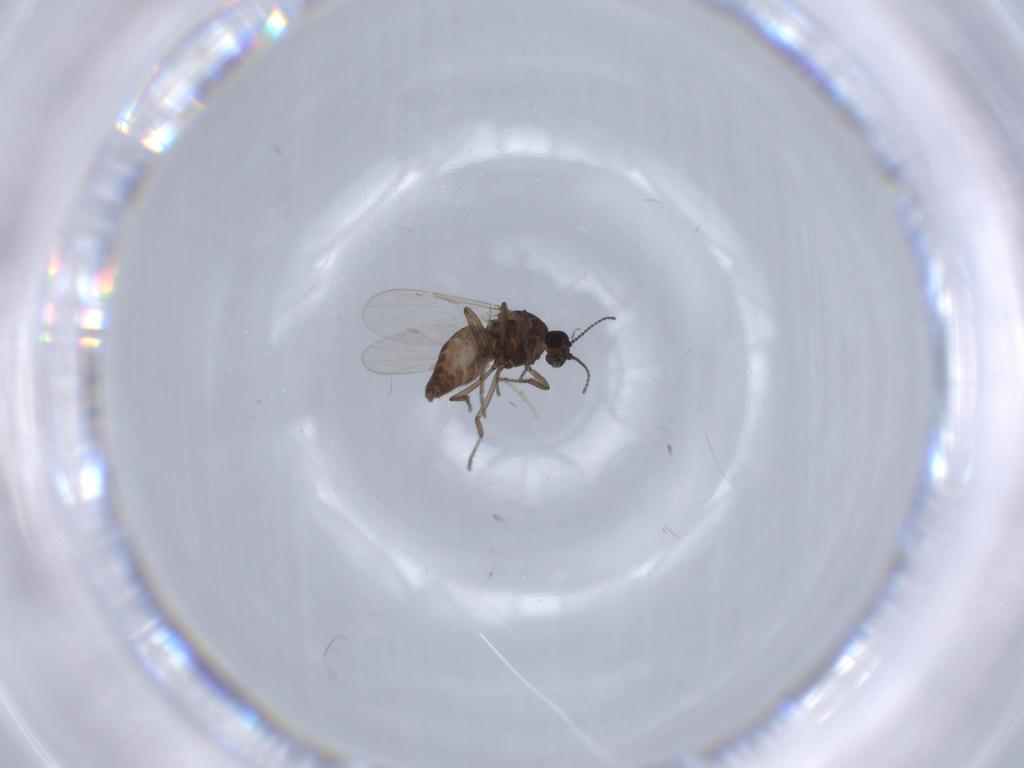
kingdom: Animalia
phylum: Arthropoda
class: Insecta
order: Diptera
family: Ceratopogonidae
